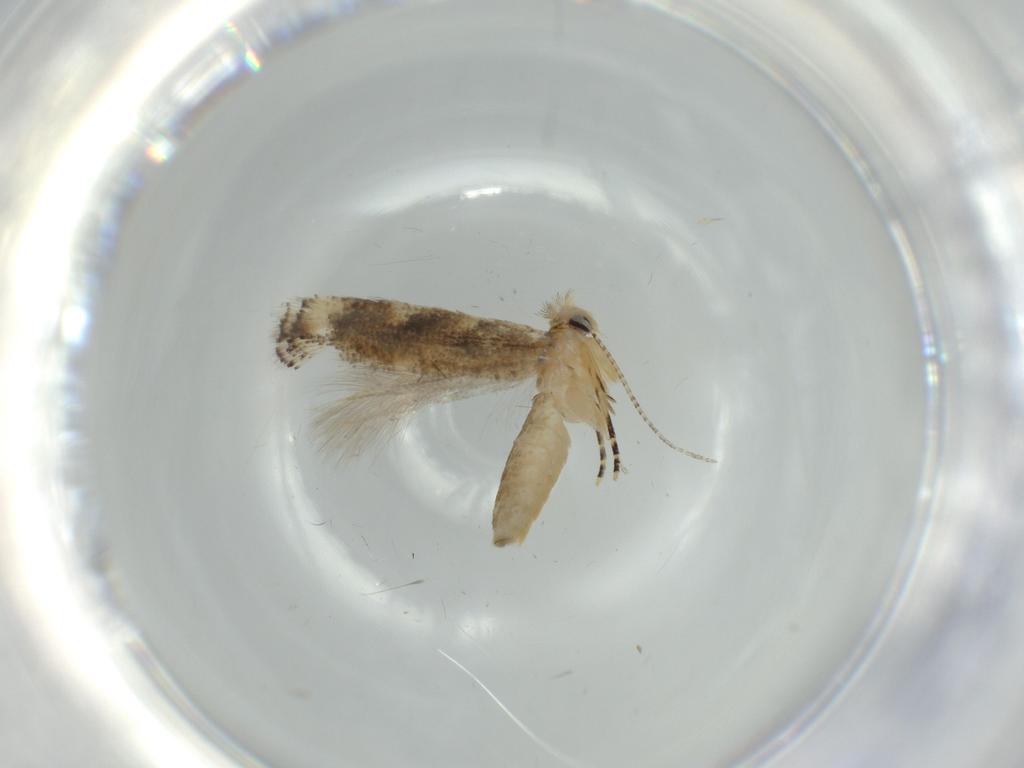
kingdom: Animalia
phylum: Arthropoda
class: Insecta
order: Lepidoptera
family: Bucculatricidae
